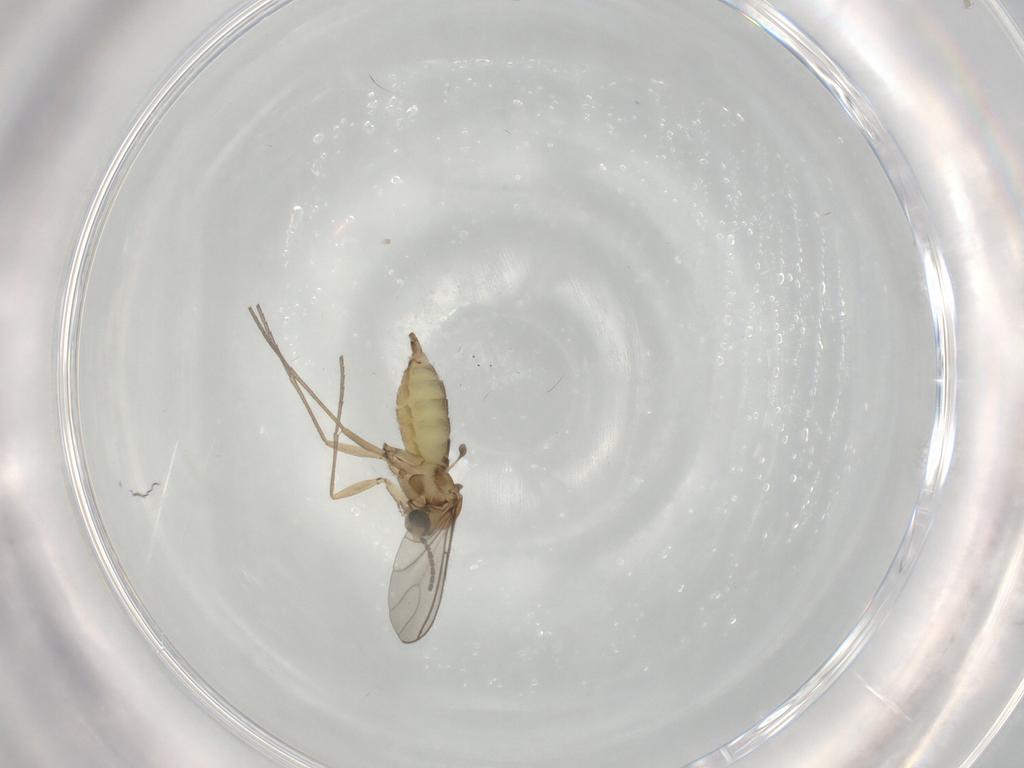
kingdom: Animalia
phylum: Arthropoda
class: Insecta
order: Diptera
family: Sciaridae
